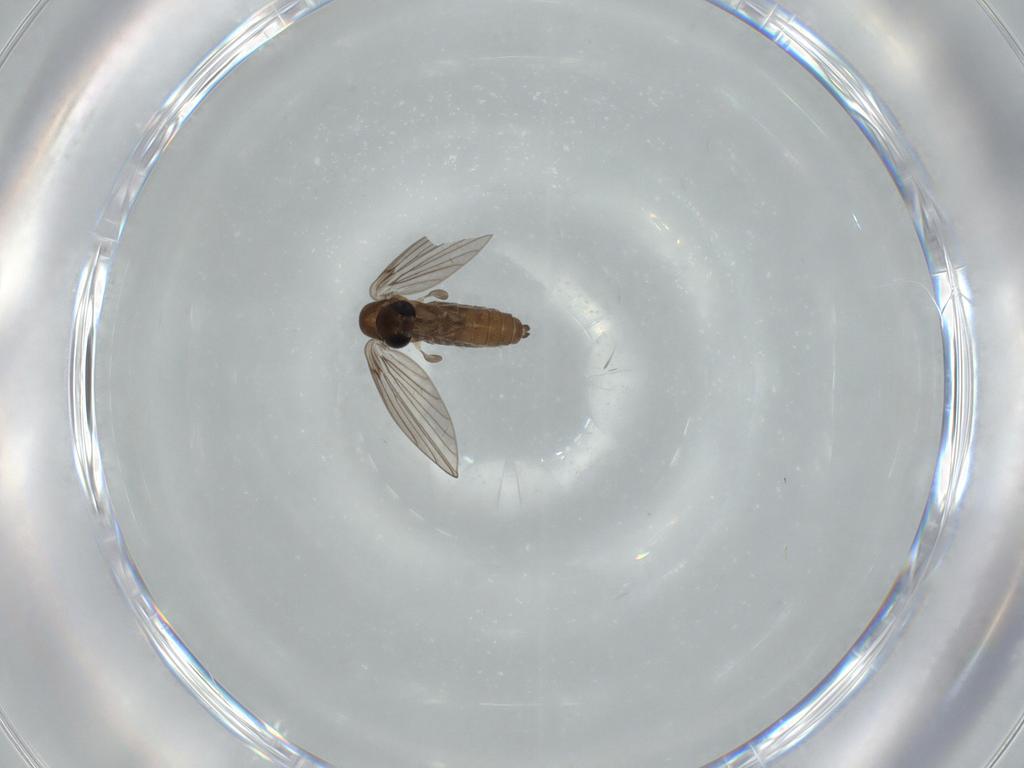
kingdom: Animalia
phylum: Arthropoda
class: Insecta
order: Diptera
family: Psychodidae
